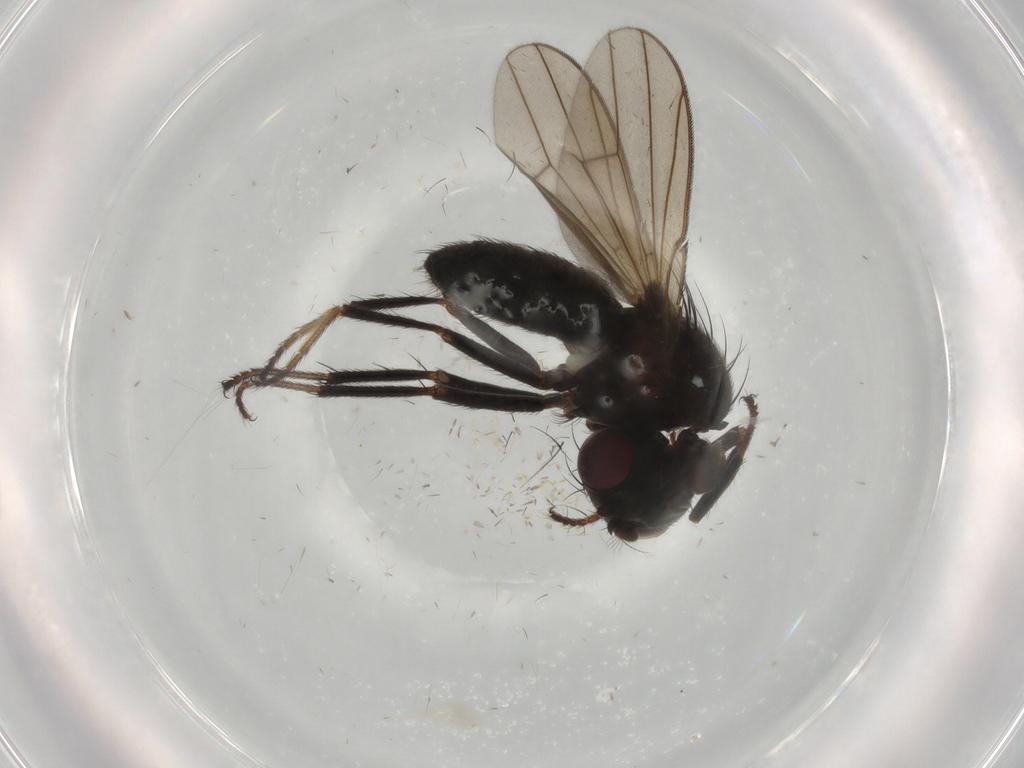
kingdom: Animalia
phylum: Arthropoda
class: Insecta
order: Diptera
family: Ephydridae
